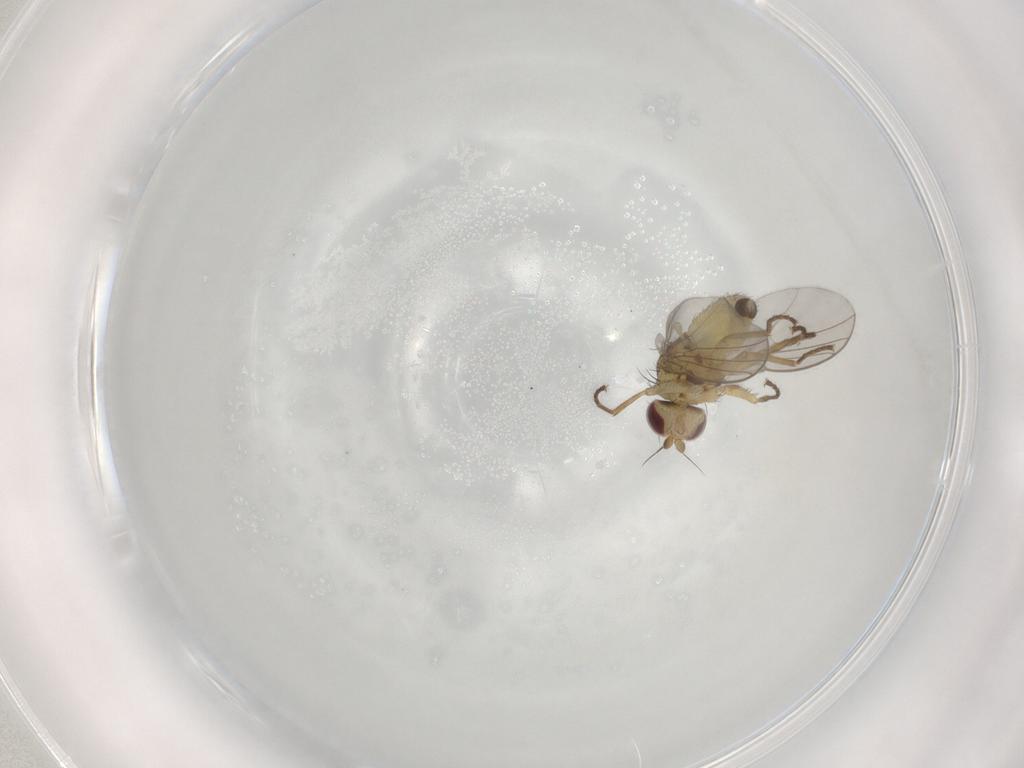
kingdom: Animalia
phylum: Arthropoda
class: Insecta
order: Diptera
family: Agromyzidae
